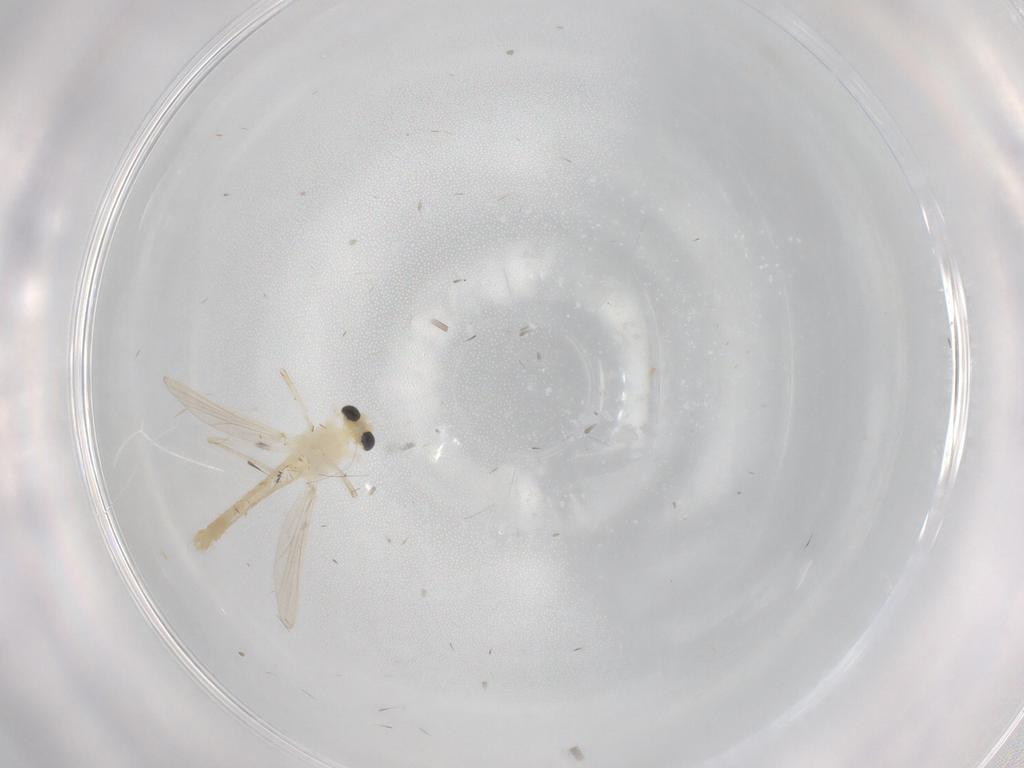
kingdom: Animalia
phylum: Arthropoda
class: Insecta
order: Diptera
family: Chironomidae
